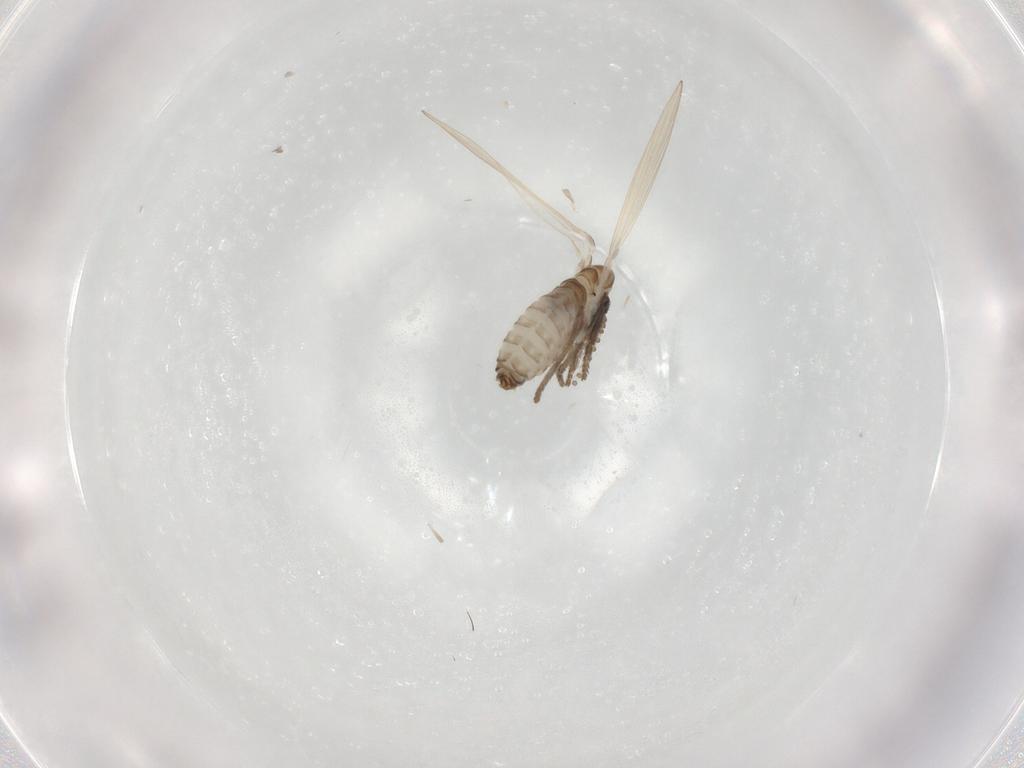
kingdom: Animalia
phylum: Arthropoda
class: Insecta
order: Diptera
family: Psychodidae
